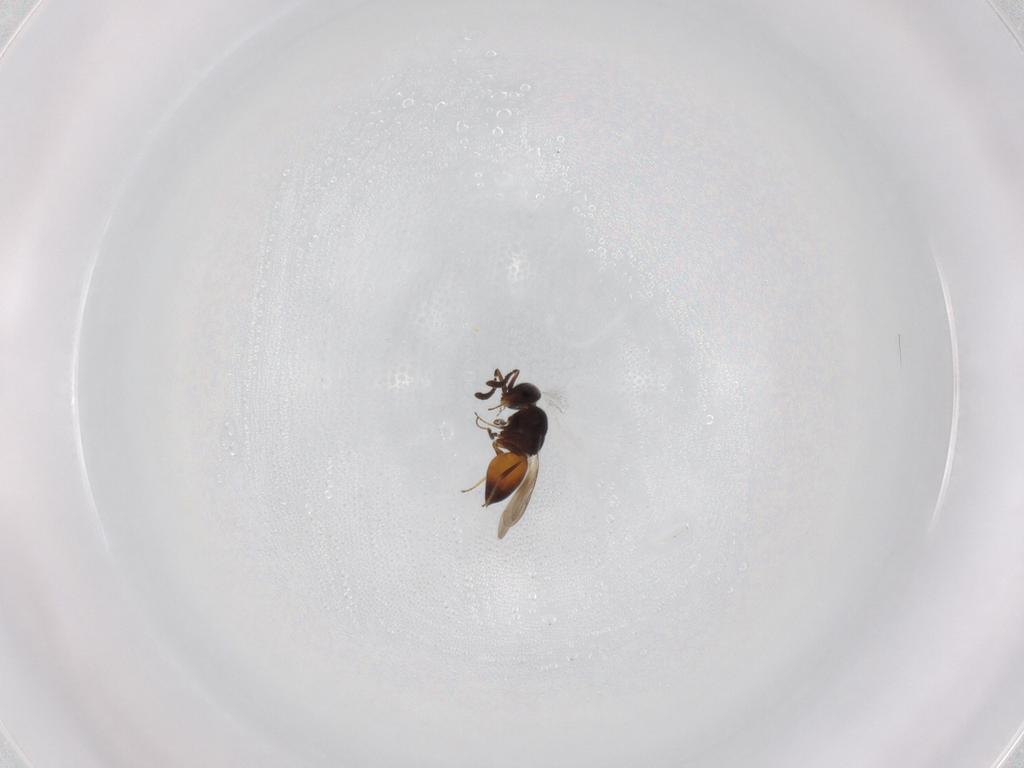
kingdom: Animalia
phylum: Arthropoda
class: Insecta
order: Hymenoptera
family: Ceraphronidae
